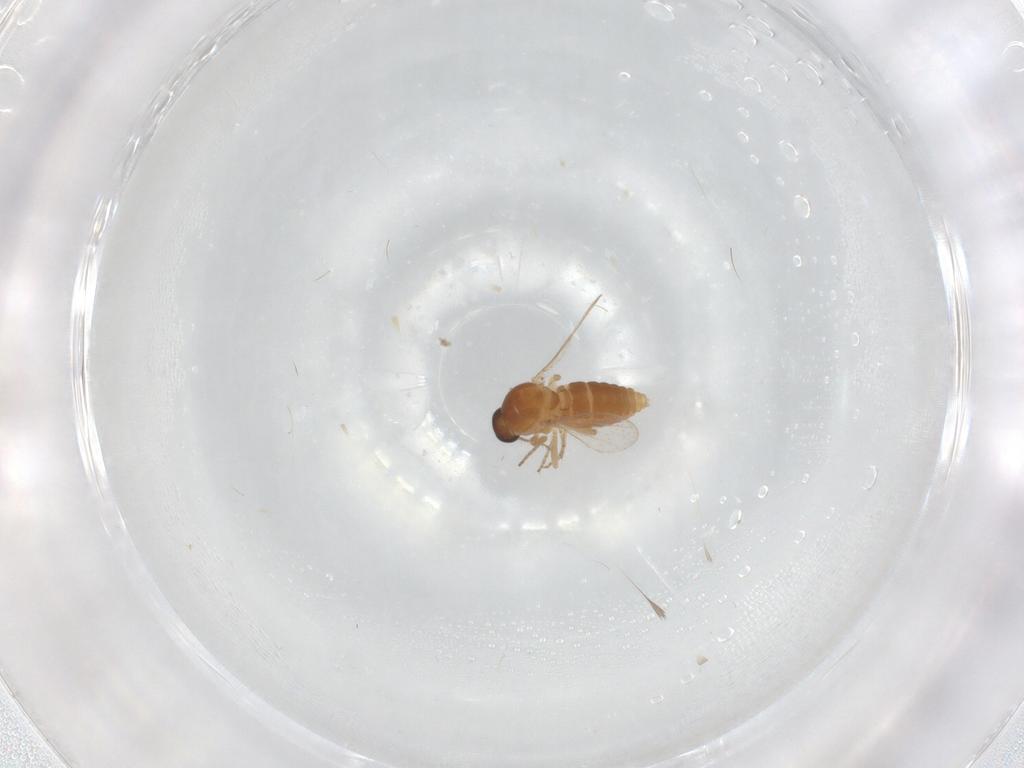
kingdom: Animalia
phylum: Arthropoda
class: Insecta
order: Diptera
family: Ceratopogonidae
